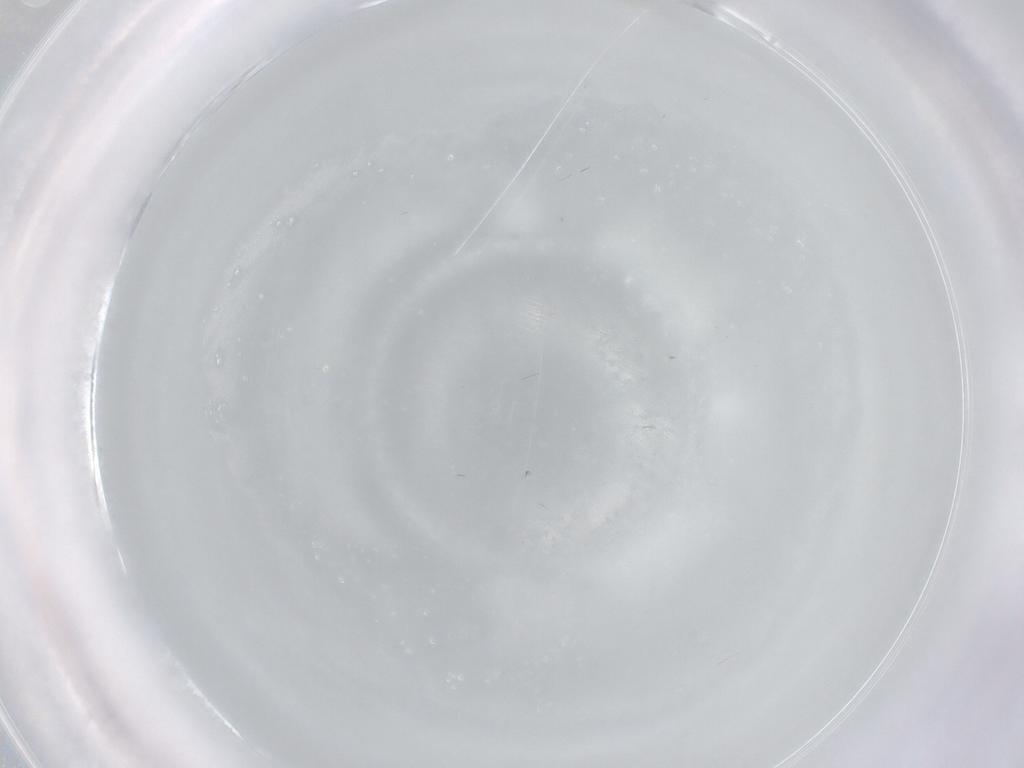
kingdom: Animalia
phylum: Arthropoda
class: Insecta
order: Diptera
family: Cecidomyiidae
